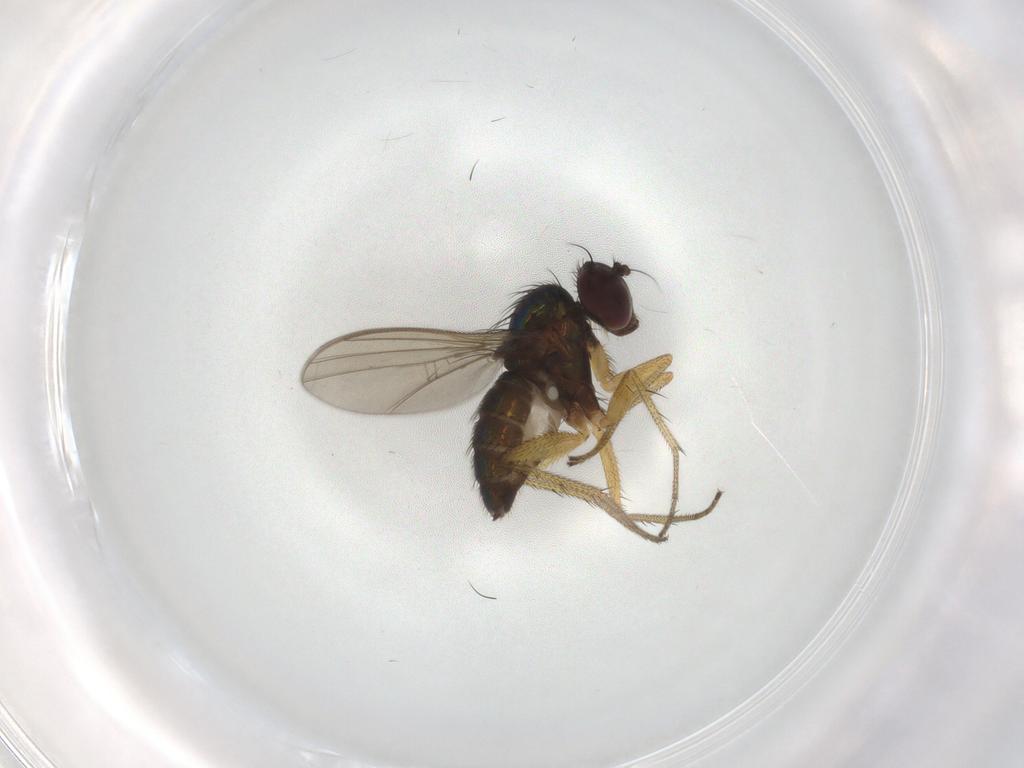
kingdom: Animalia
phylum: Arthropoda
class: Insecta
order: Diptera
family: Dolichopodidae
